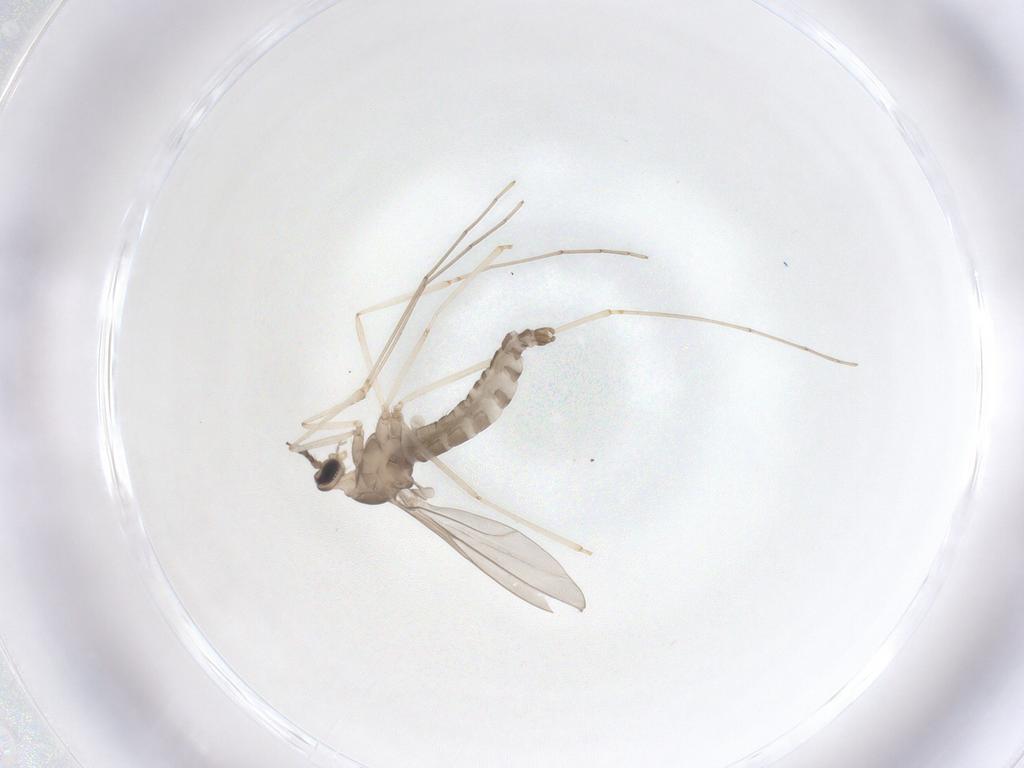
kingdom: Animalia
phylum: Arthropoda
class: Insecta
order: Diptera
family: Cecidomyiidae
